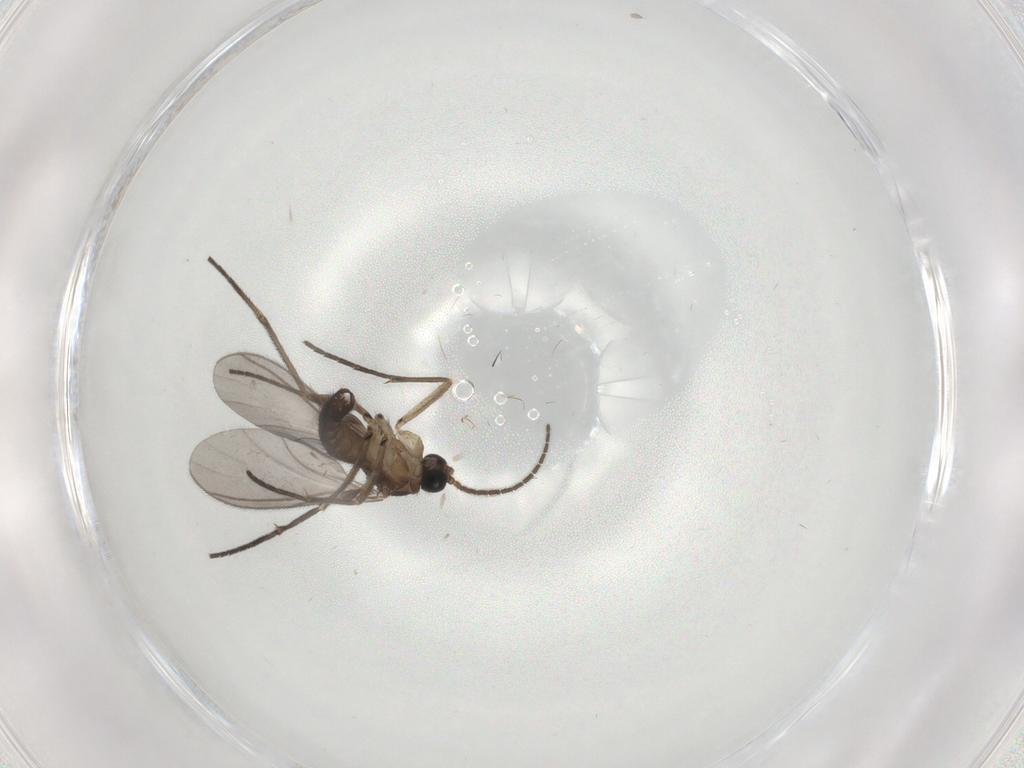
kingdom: Animalia
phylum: Arthropoda
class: Insecta
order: Diptera
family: Sciaridae
